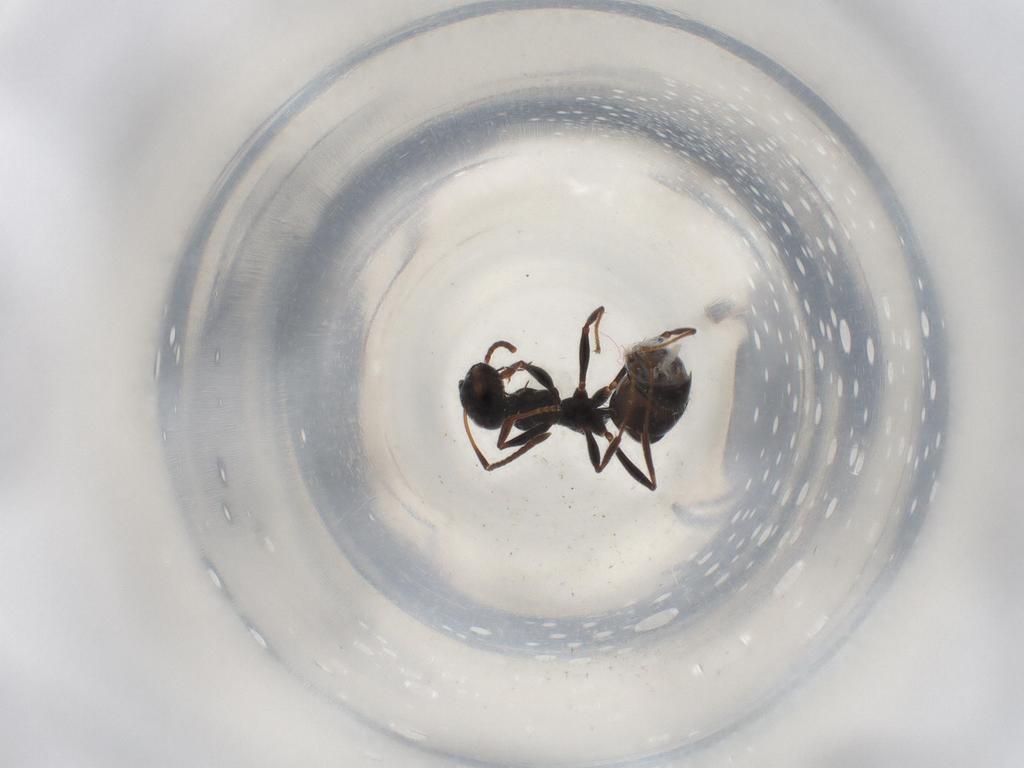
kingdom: Animalia
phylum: Arthropoda
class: Insecta
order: Hymenoptera
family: Formicidae
